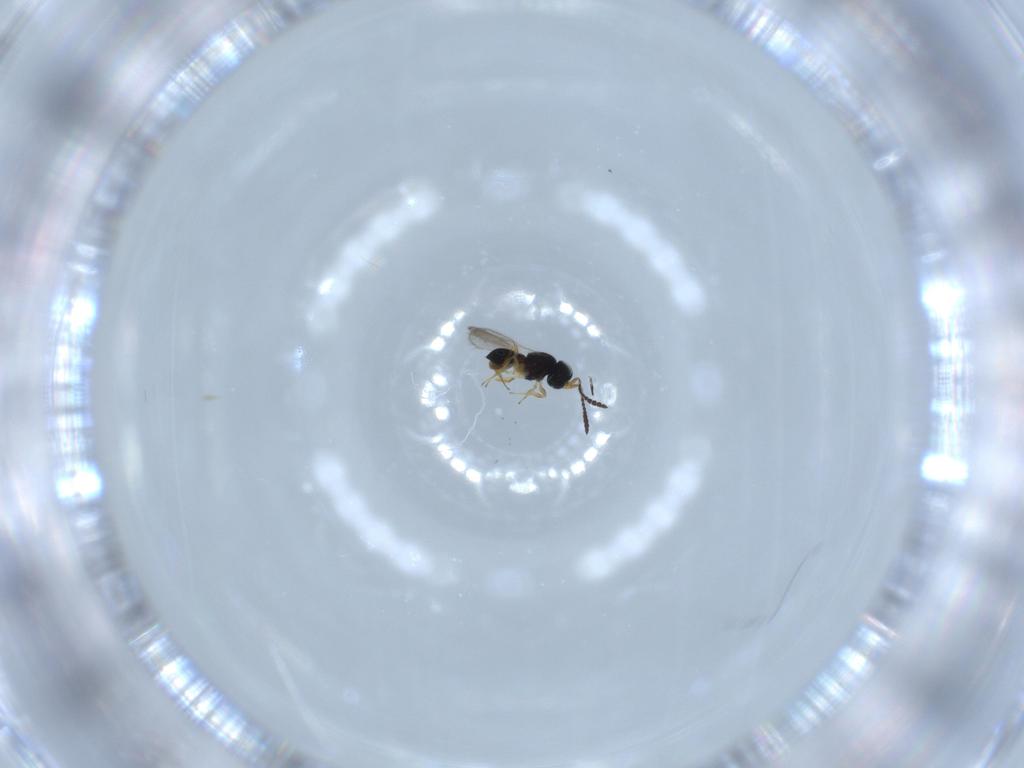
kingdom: Animalia
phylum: Arthropoda
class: Insecta
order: Hymenoptera
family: Scelionidae
